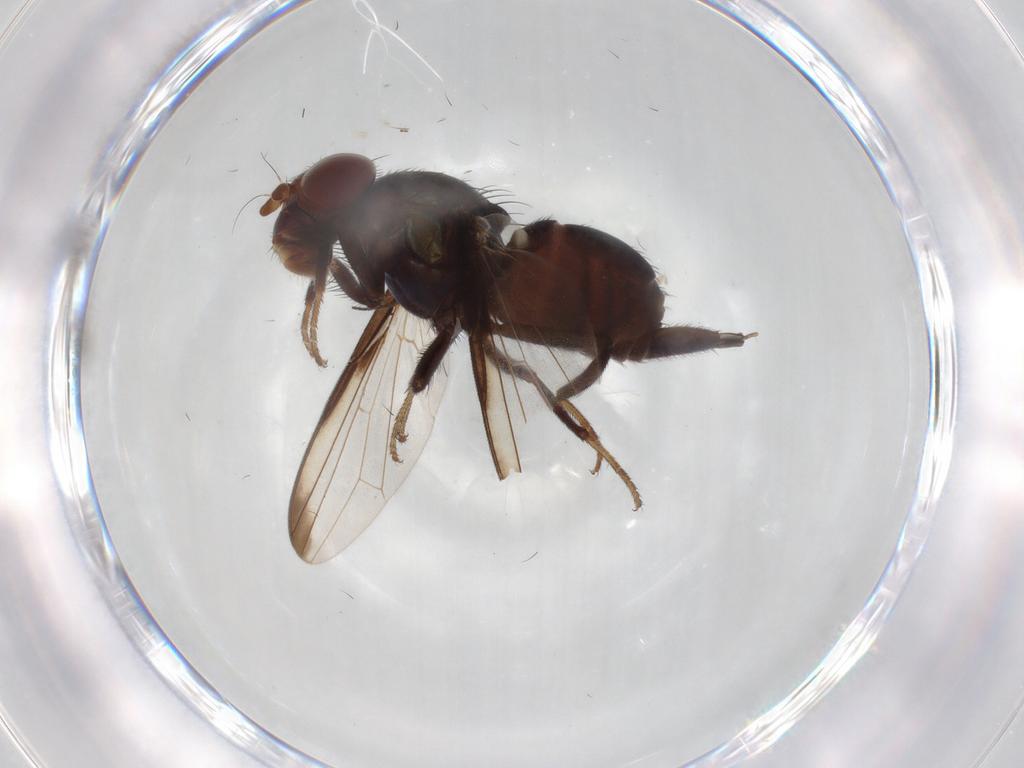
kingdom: Animalia
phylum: Arthropoda
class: Insecta
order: Diptera
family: Ulidiidae
